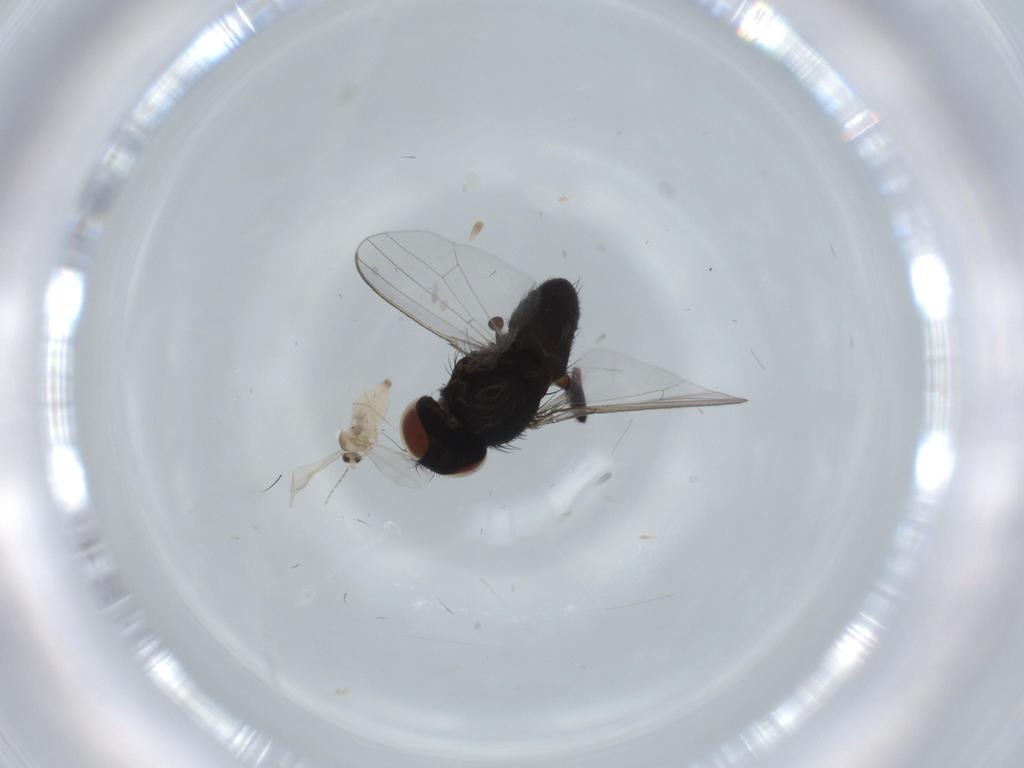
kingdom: Animalia
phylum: Arthropoda
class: Insecta
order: Diptera
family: Cecidomyiidae
